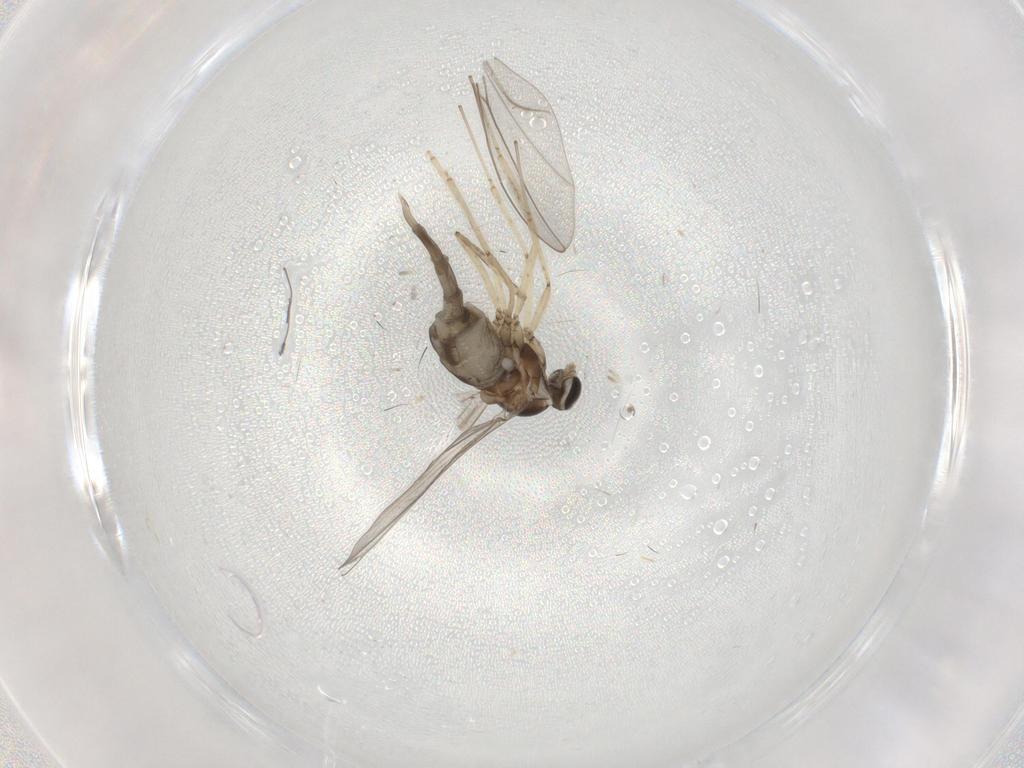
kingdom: Animalia
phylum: Arthropoda
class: Insecta
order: Diptera
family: Cecidomyiidae
